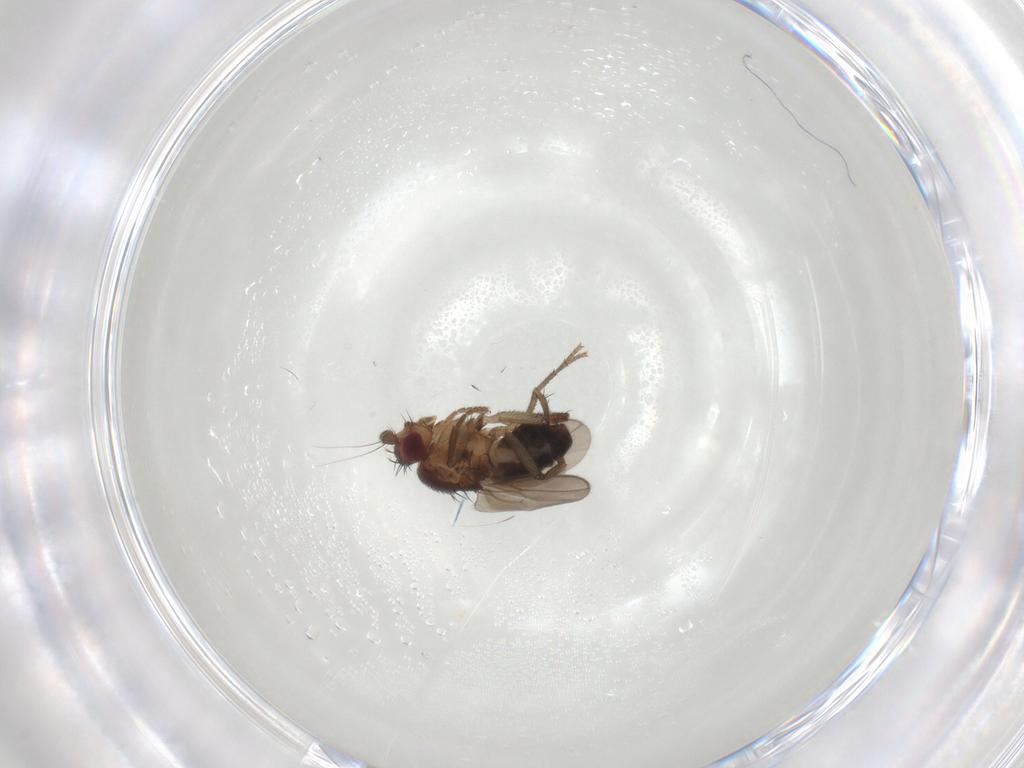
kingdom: Animalia
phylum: Arthropoda
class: Insecta
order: Diptera
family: Sphaeroceridae
